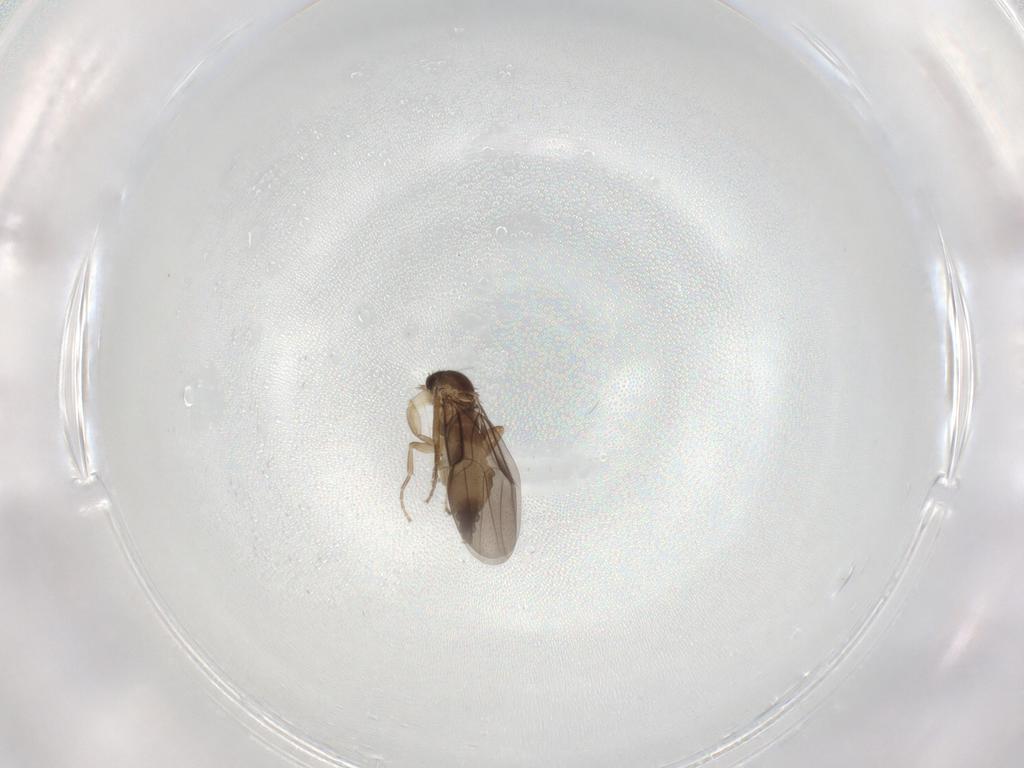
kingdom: Animalia
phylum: Arthropoda
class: Insecta
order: Diptera
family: Phoridae
